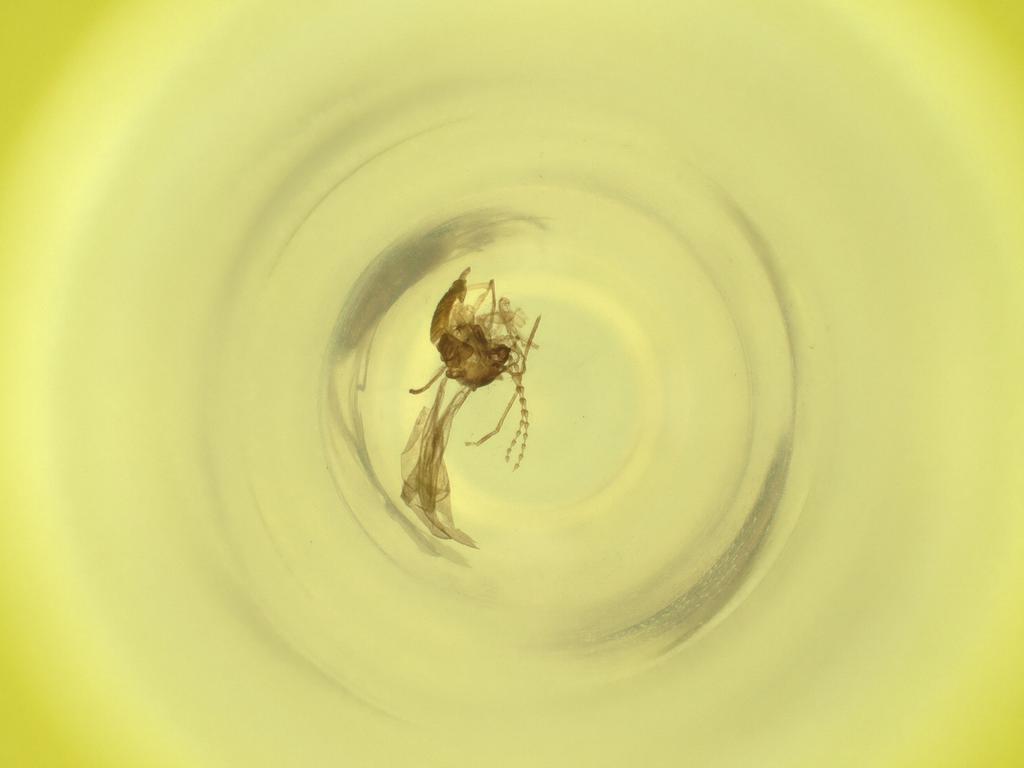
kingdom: Animalia
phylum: Arthropoda
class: Insecta
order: Diptera
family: Cecidomyiidae
